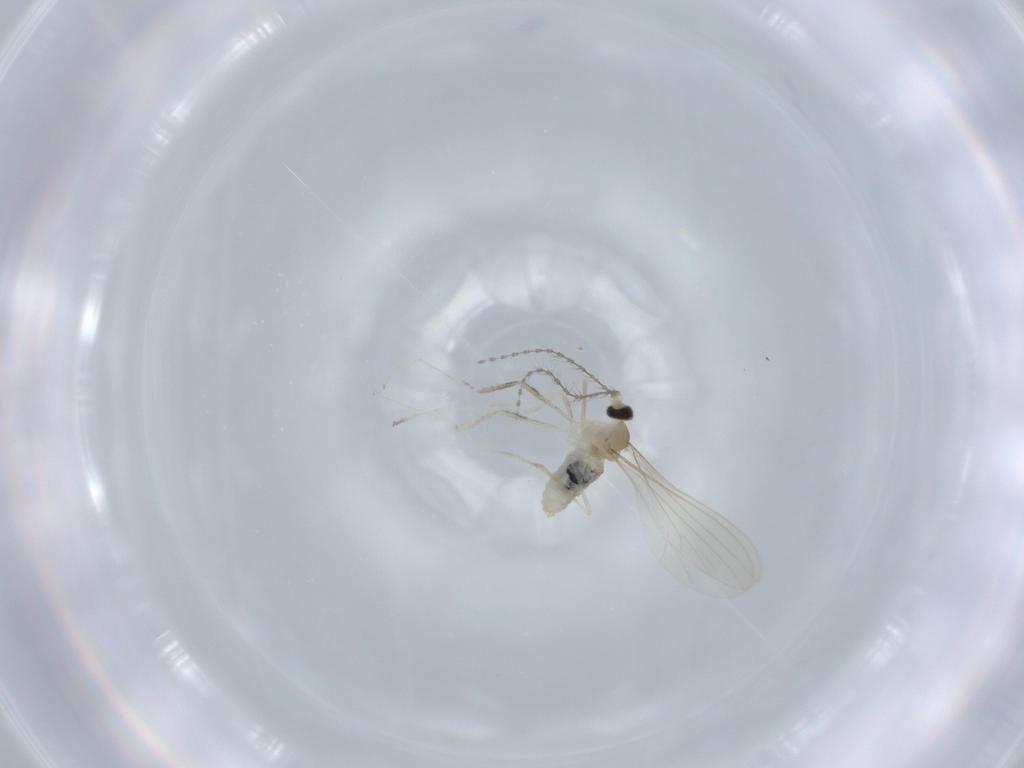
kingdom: Animalia
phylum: Arthropoda
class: Insecta
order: Diptera
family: Cecidomyiidae
